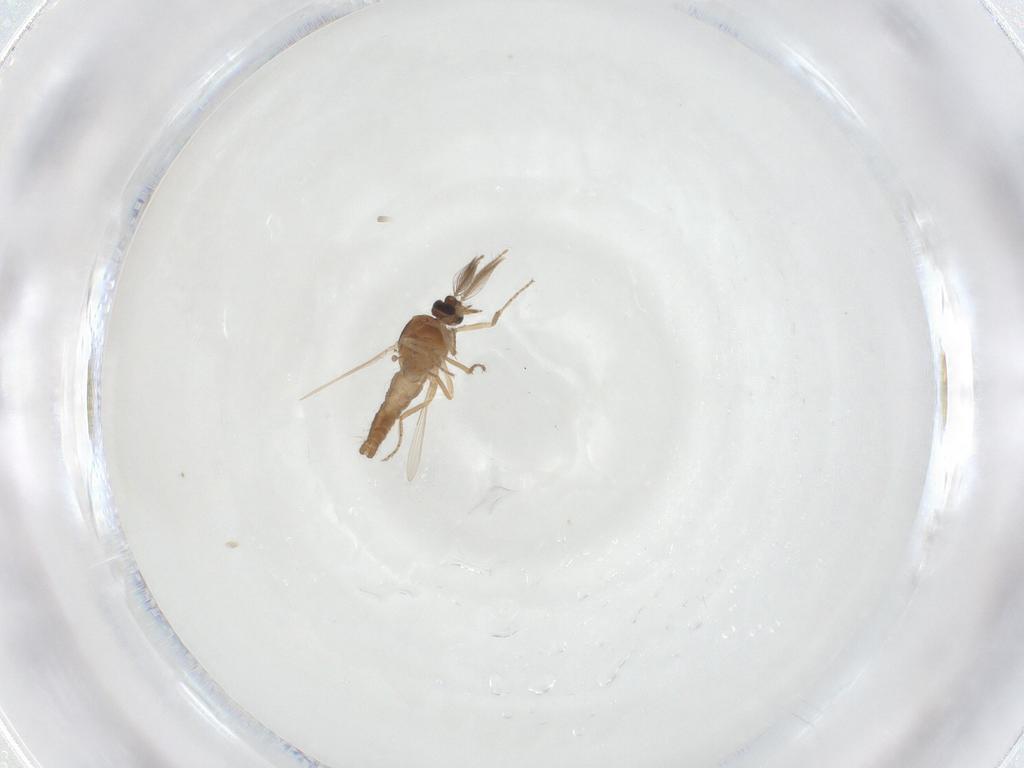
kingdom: Animalia
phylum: Arthropoda
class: Insecta
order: Diptera
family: Ceratopogonidae
